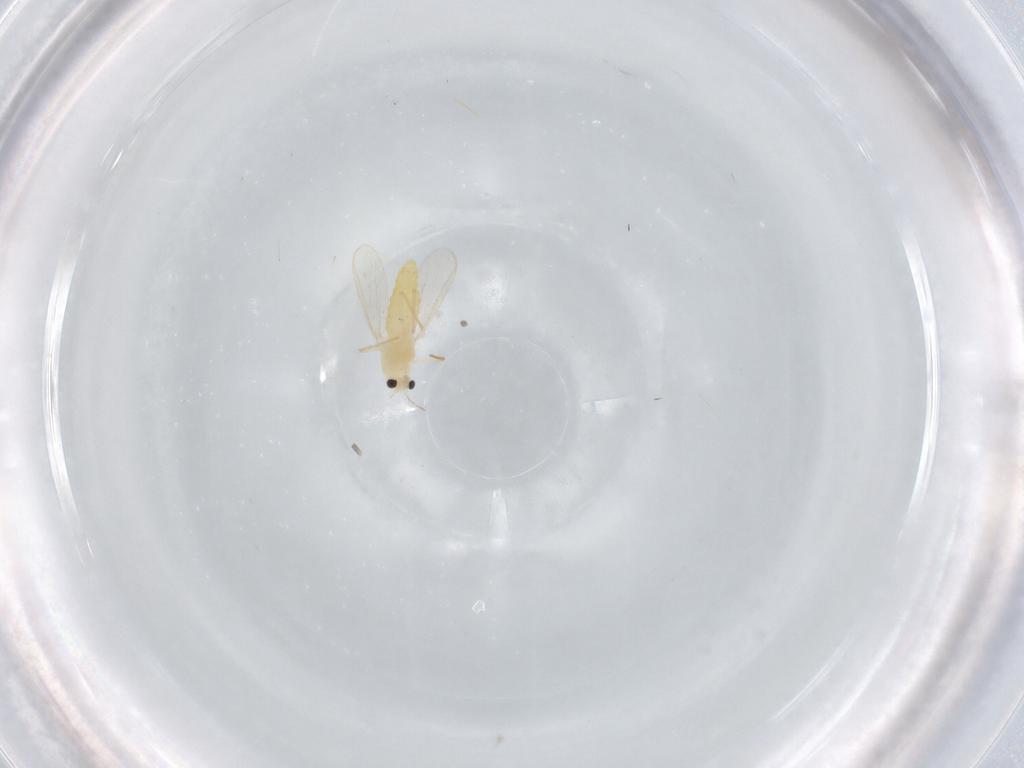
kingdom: Animalia
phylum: Arthropoda
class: Insecta
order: Diptera
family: Chironomidae
